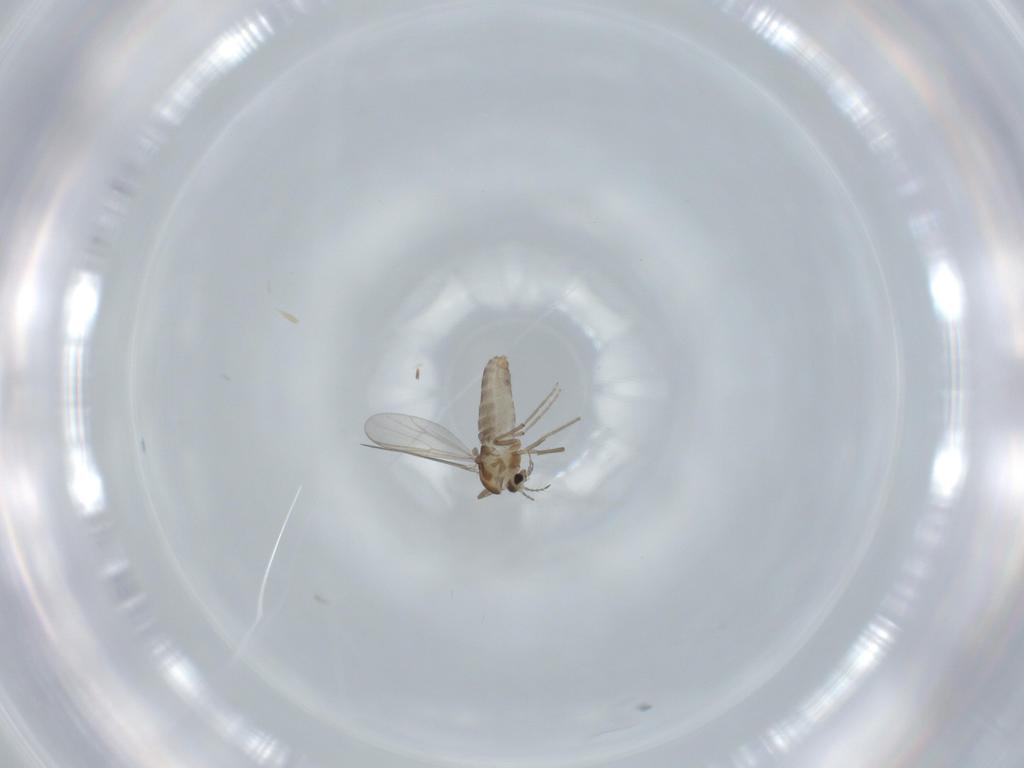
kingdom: Animalia
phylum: Arthropoda
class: Insecta
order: Diptera
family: Chironomidae
